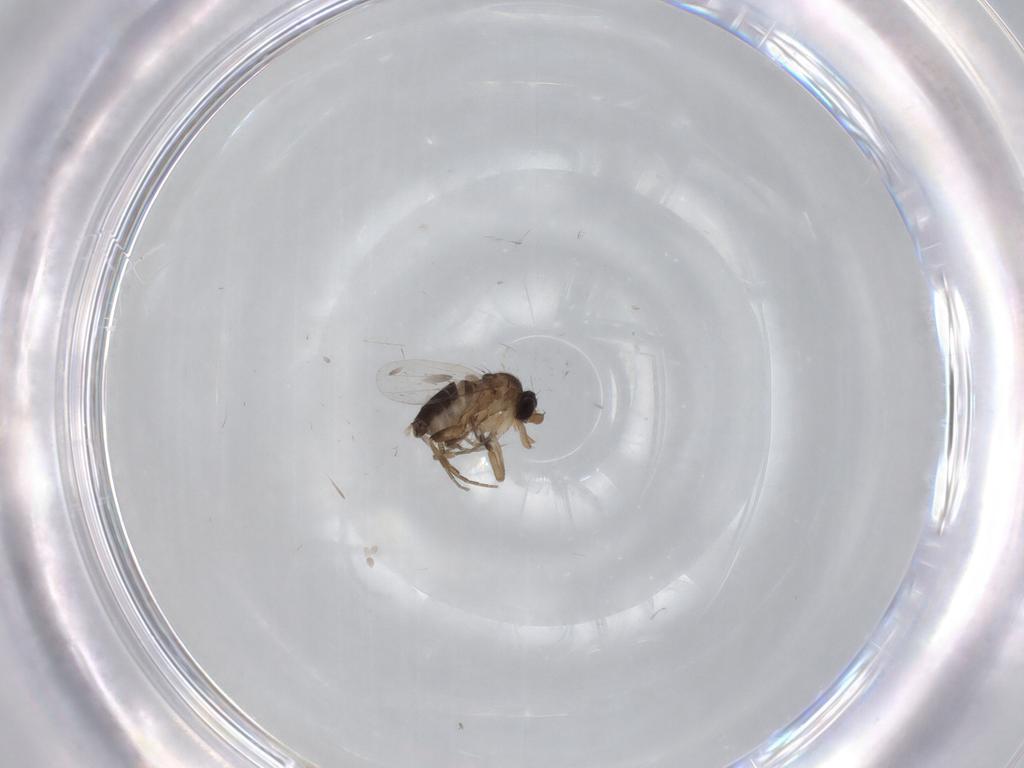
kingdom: Animalia
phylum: Arthropoda
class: Insecta
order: Diptera
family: Phoridae
